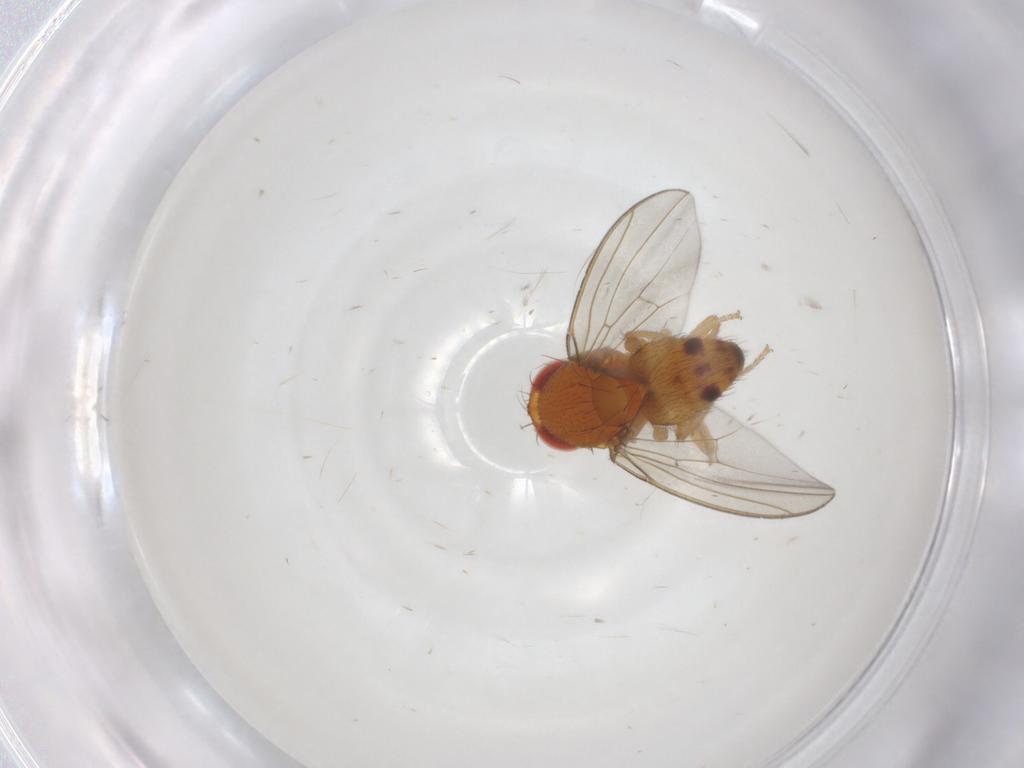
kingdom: Animalia
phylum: Arthropoda
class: Insecta
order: Diptera
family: Drosophilidae
